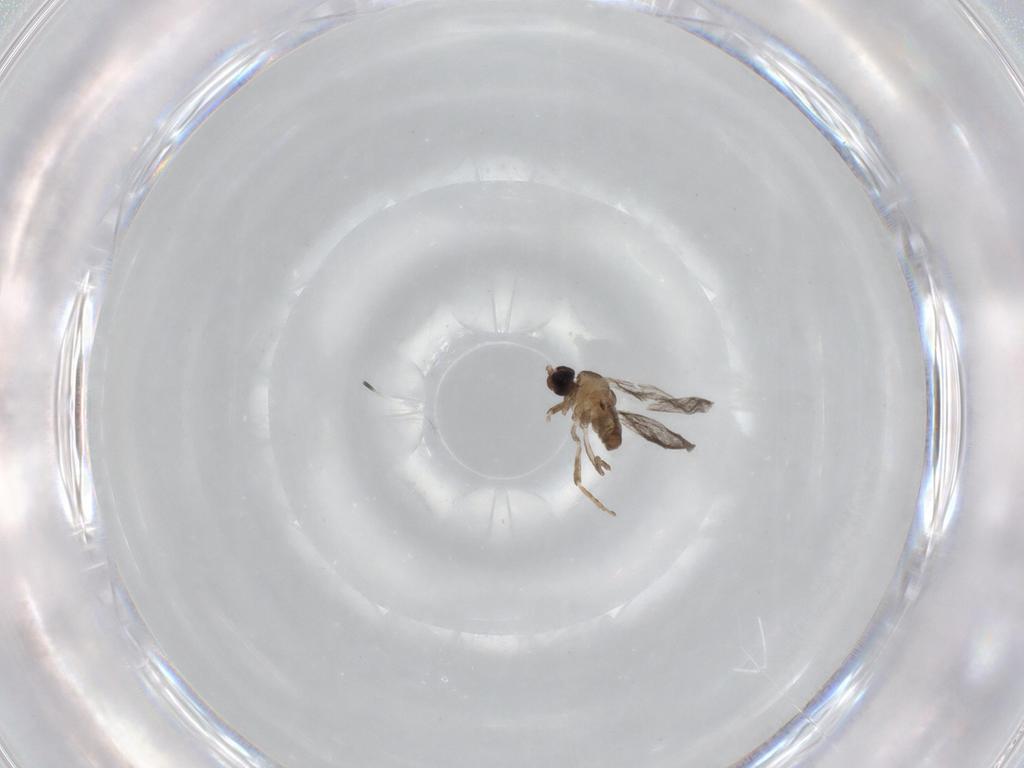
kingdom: Animalia
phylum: Arthropoda
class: Insecta
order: Diptera
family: Cecidomyiidae
